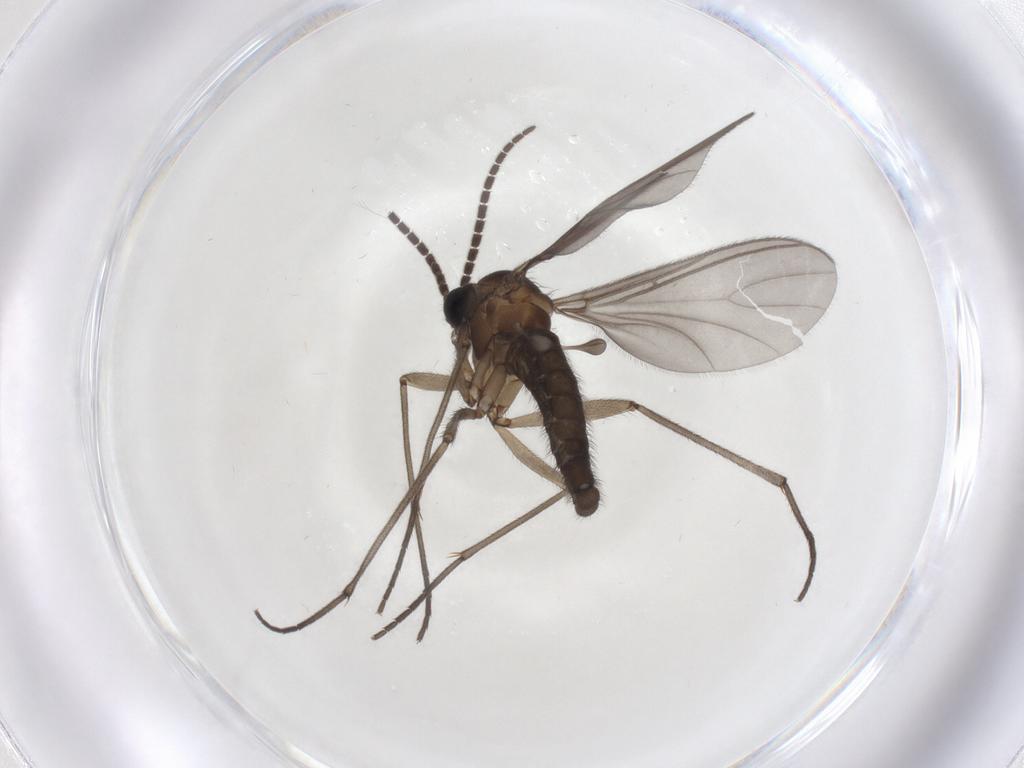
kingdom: Animalia
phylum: Arthropoda
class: Insecta
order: Diptera
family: Sciaridae
